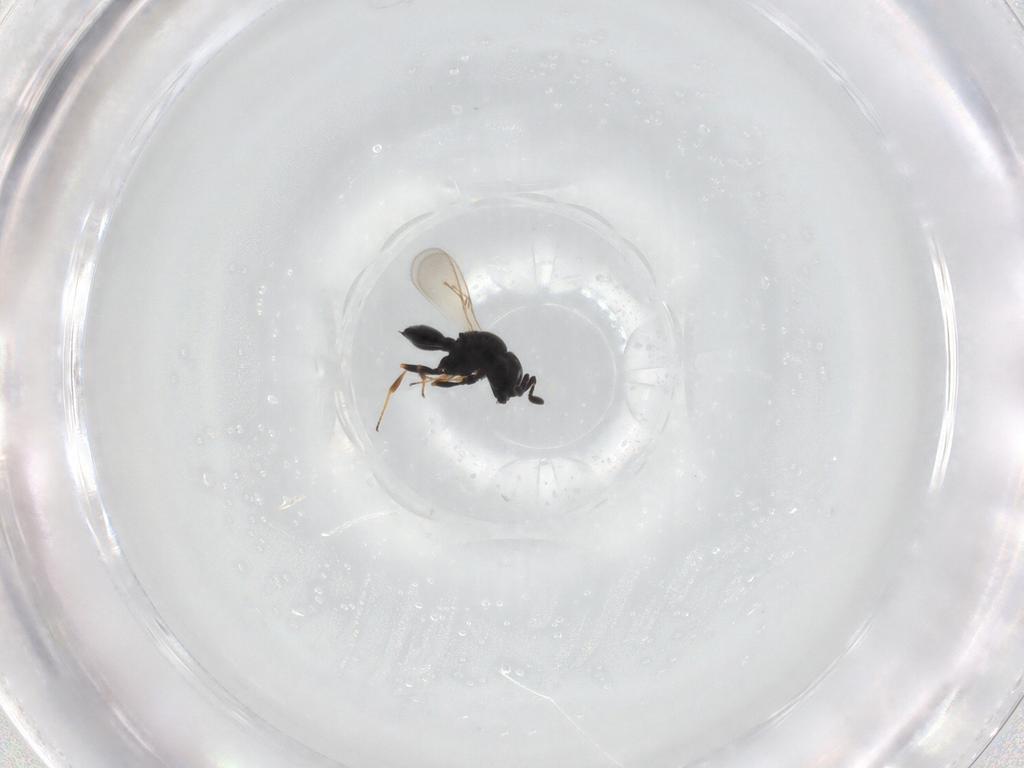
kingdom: Animalia
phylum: Arthropoda
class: Insecta
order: Hymenoptera
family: Scelionidae
